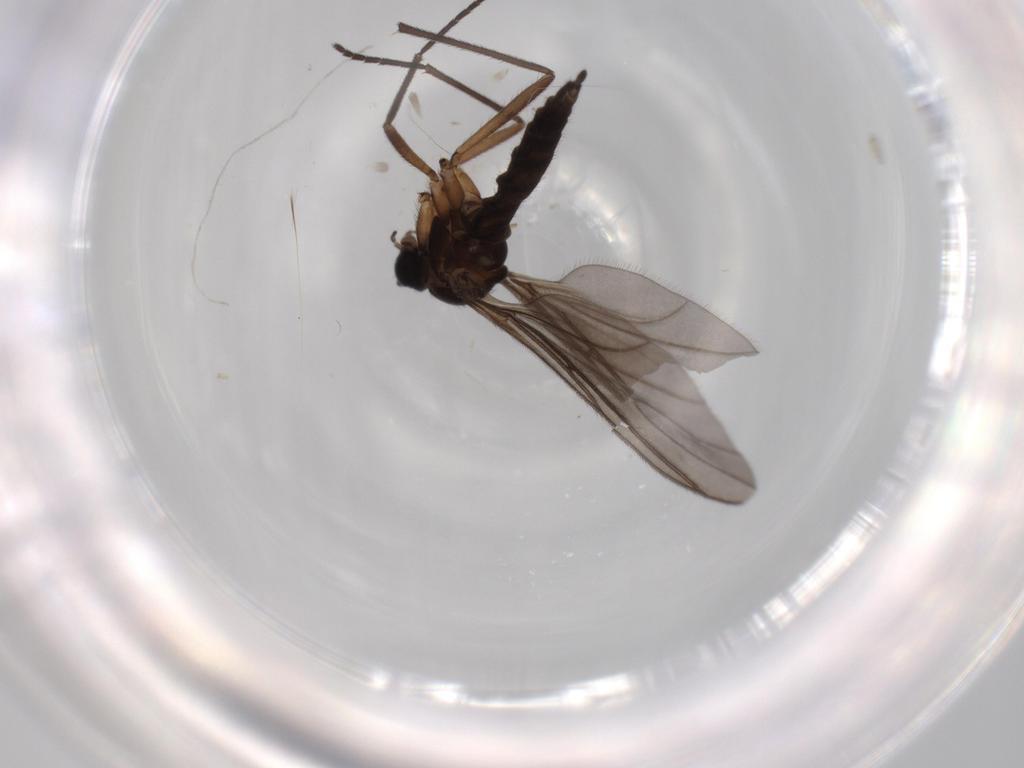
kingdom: Animalia
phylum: Arthropoda
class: Insecta
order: Diptera
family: Sciaridae
